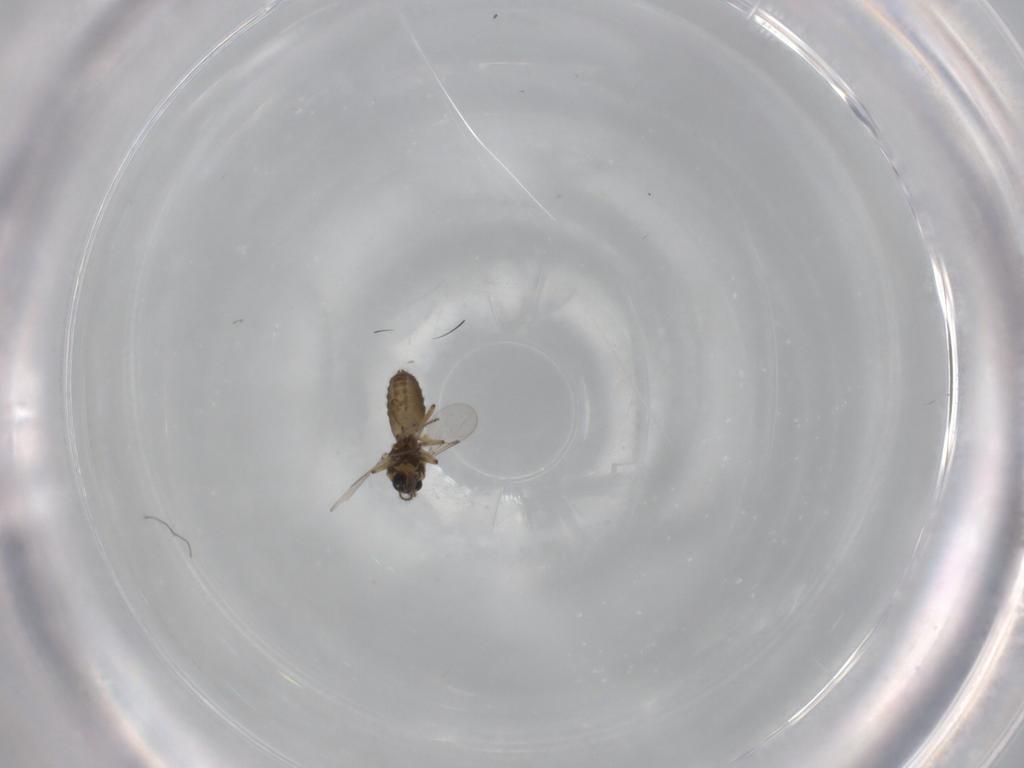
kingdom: Animalia
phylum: Arthropoda
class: Insecta
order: Diptera
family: Ceratopogonidae
